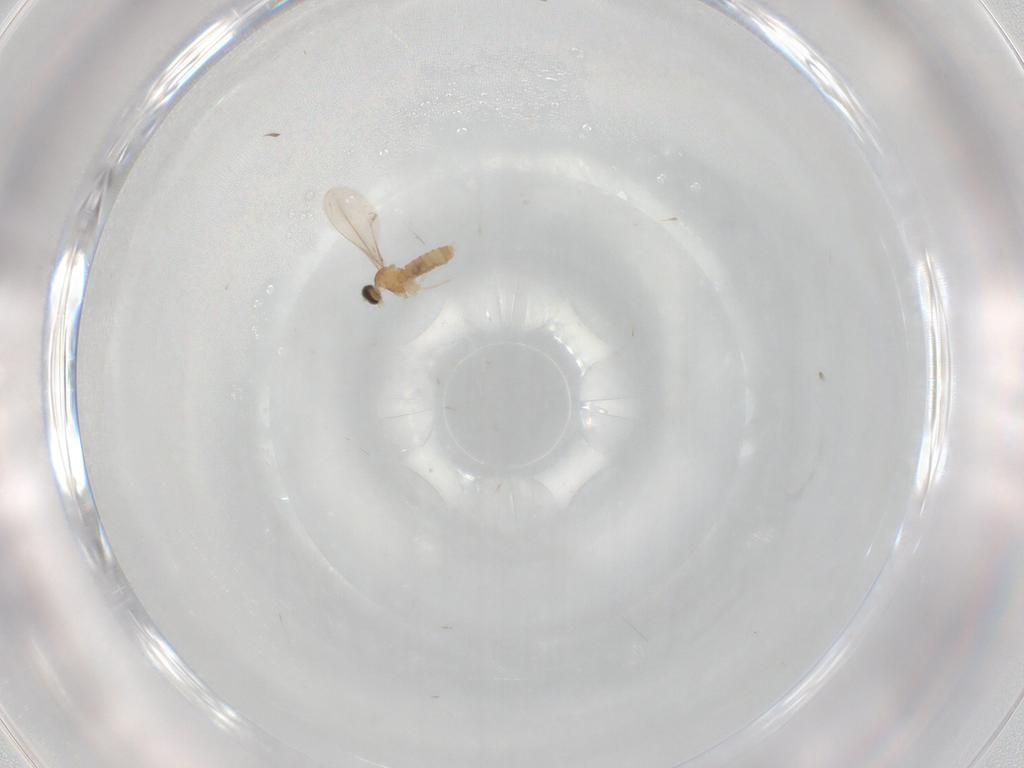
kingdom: Animalia
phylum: Arthropoda
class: Insecta
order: Diptera
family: Cecidomyiidae
